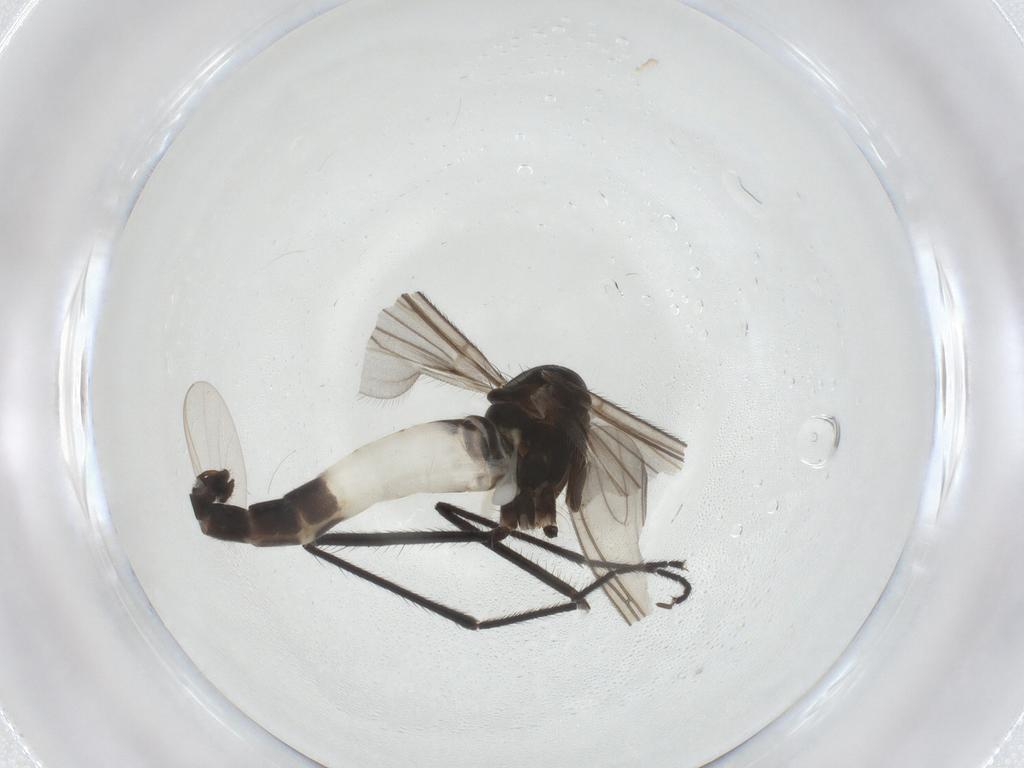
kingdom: Animalia
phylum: Arthropoda
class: Insecta
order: Diptera
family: Empididae
